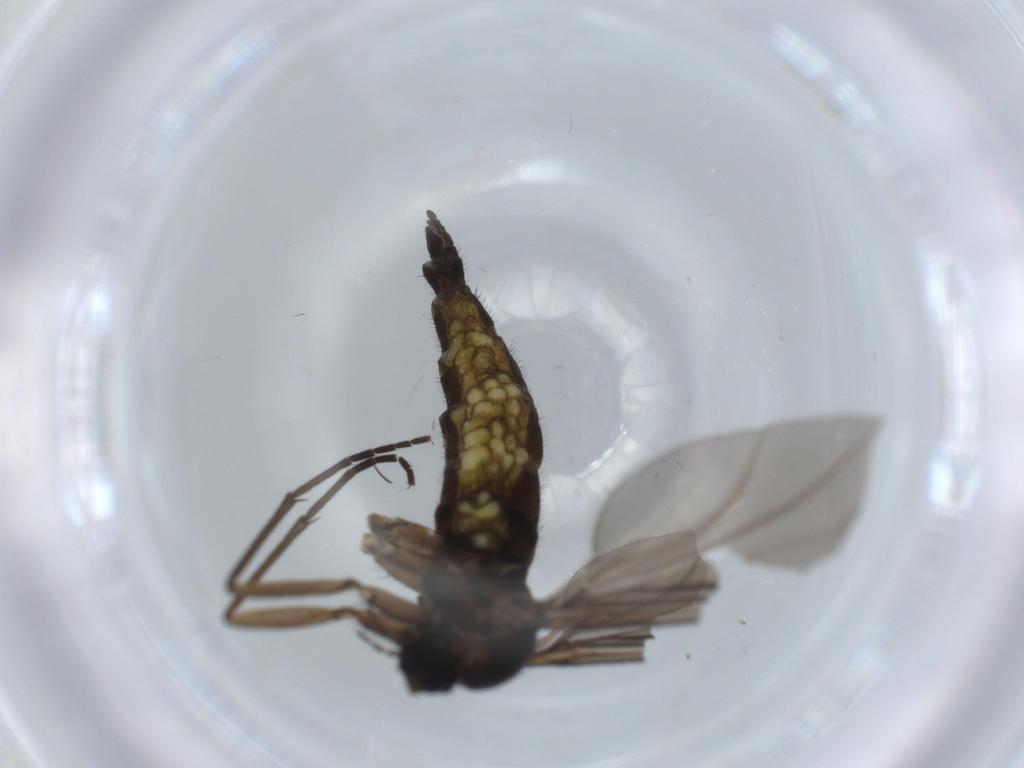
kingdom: Animalia
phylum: Arthropoda
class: Insecta
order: Diptera
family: Sciaridae
